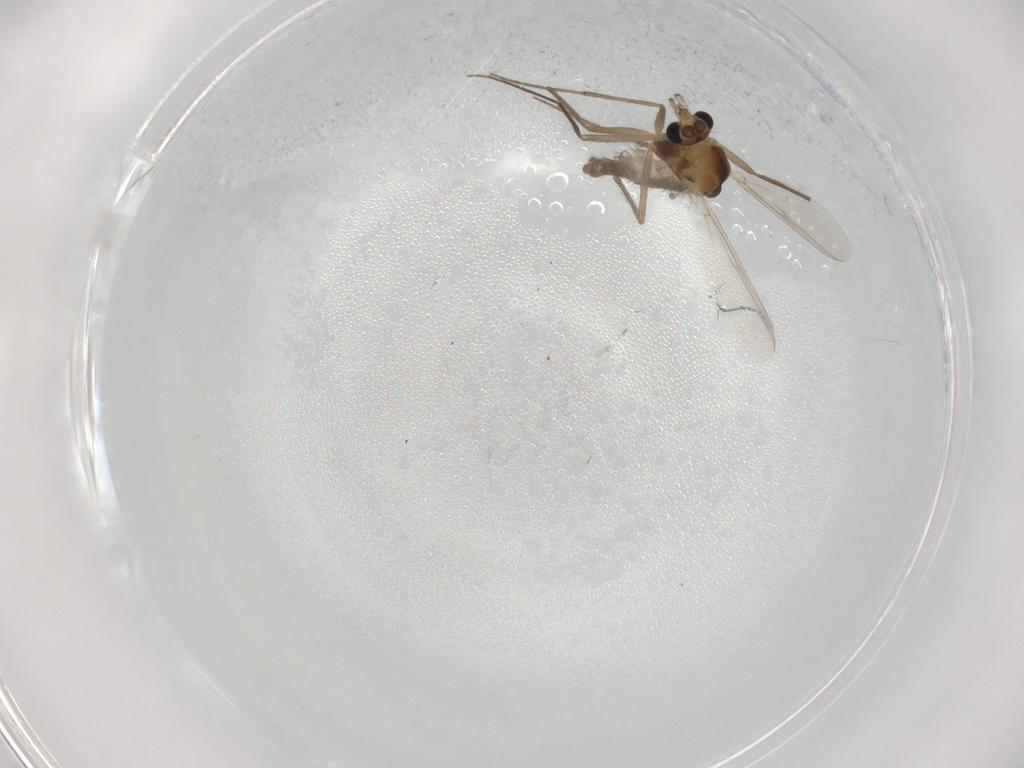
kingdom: Animalia
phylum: Arthropoda
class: Insecta
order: Diptera
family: Chironomidae
